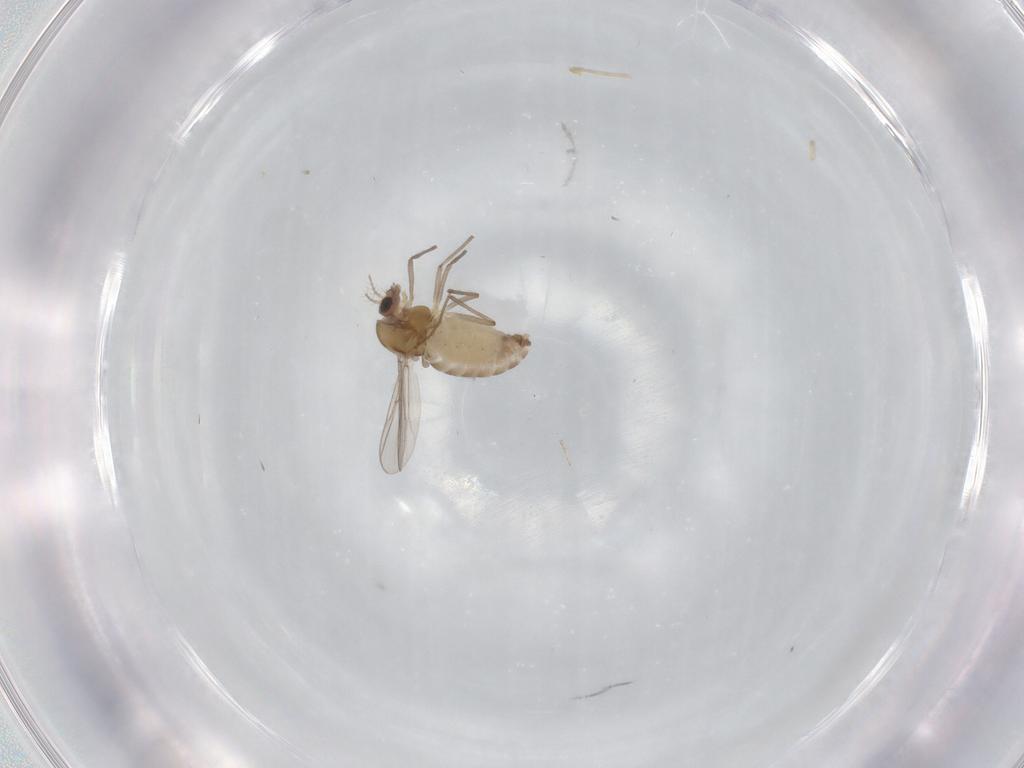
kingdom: Animalia
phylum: Arthropoda
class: Insecta
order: Diptera
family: Chironomidae
